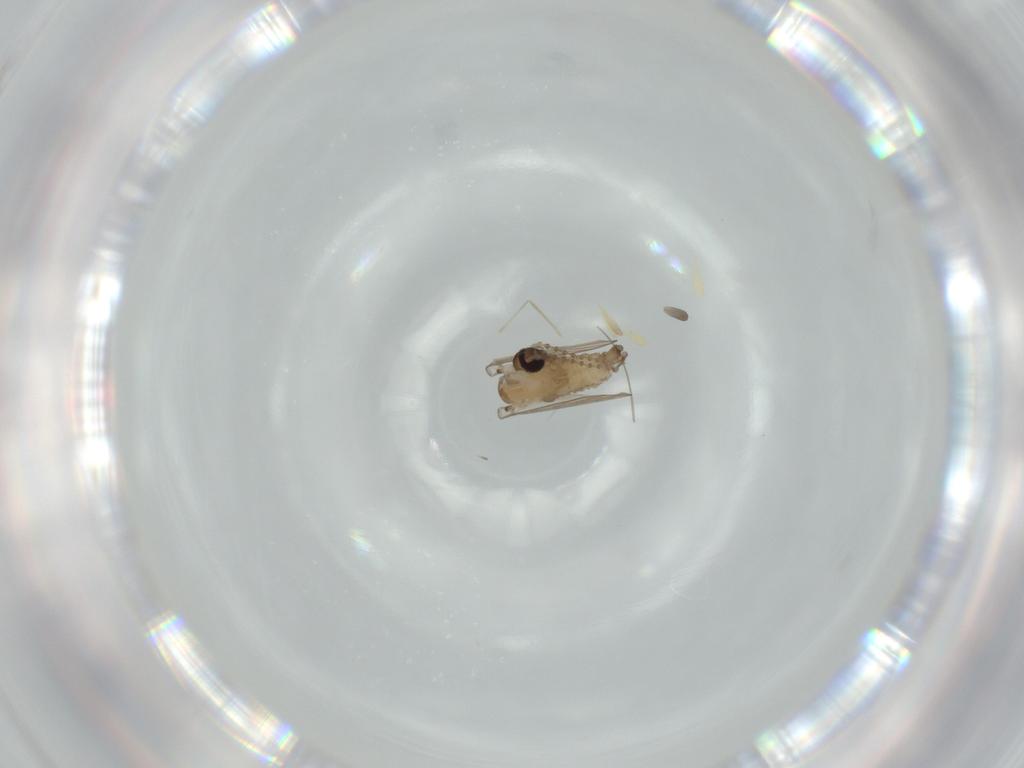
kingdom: Animalia
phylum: Arthropoda
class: Insecta
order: Diptera
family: Psychodidae
